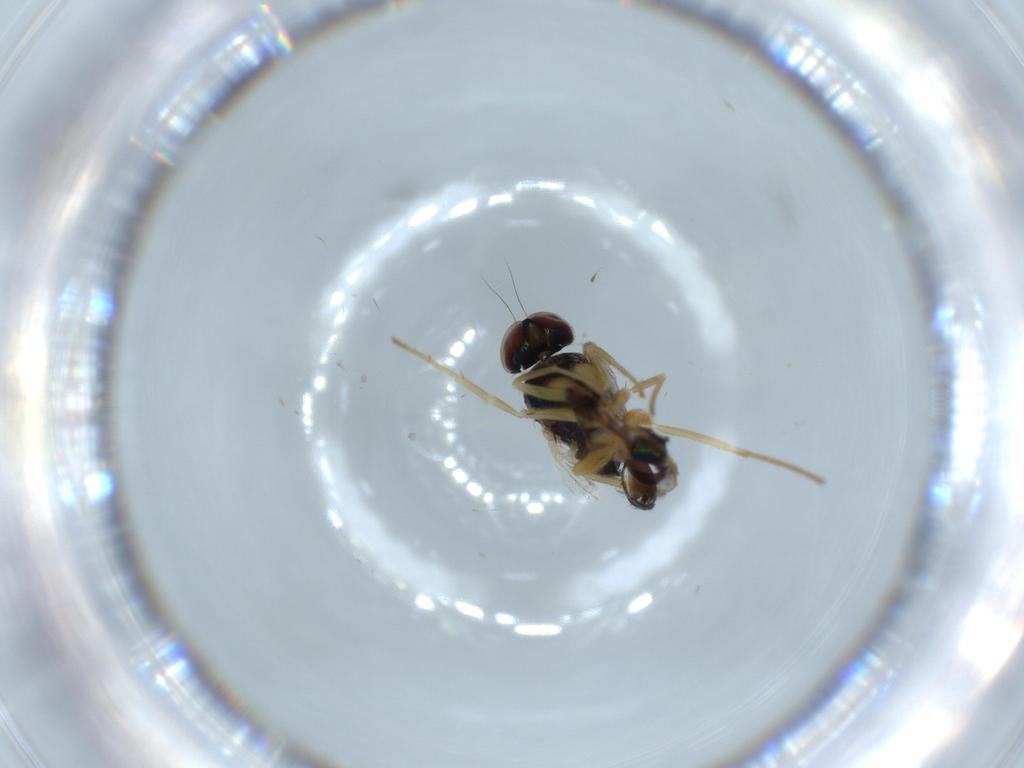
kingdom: Animalia
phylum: Arthropoda
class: Insecta
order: Diptera
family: Dolichopodidae
